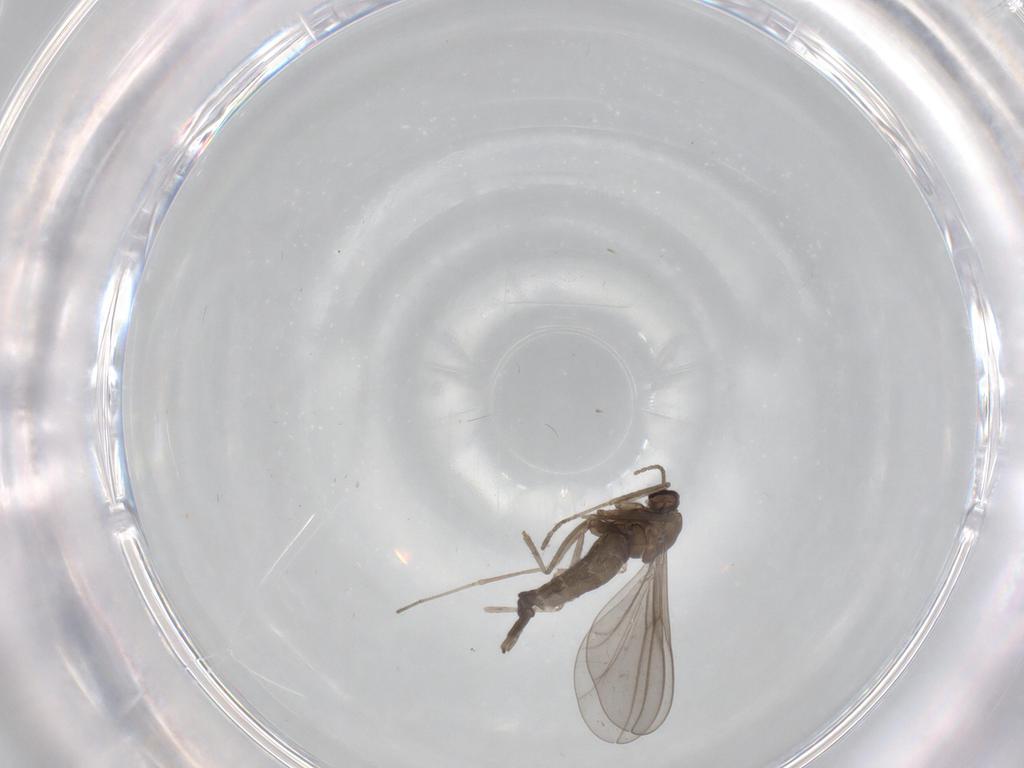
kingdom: Animalia
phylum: Arthropoda
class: Insecta
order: Diptera
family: Cecidomyiidae
